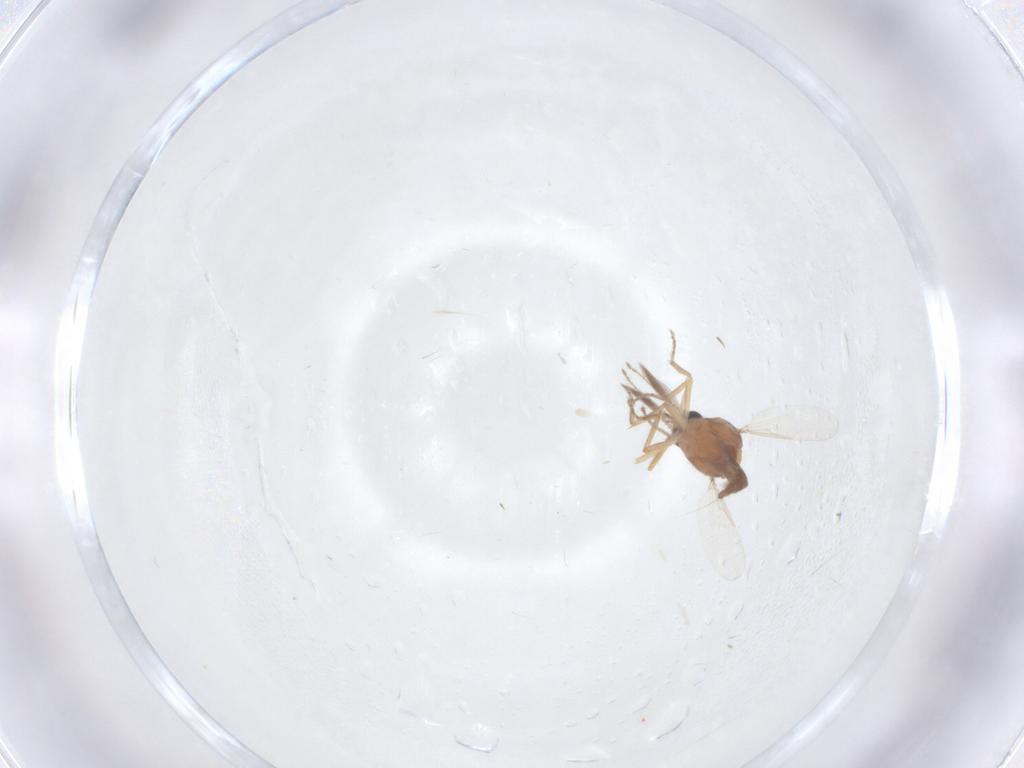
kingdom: Animalia
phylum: Arthropoda
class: Insecta
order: Diptera
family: Ceratopogonidae
